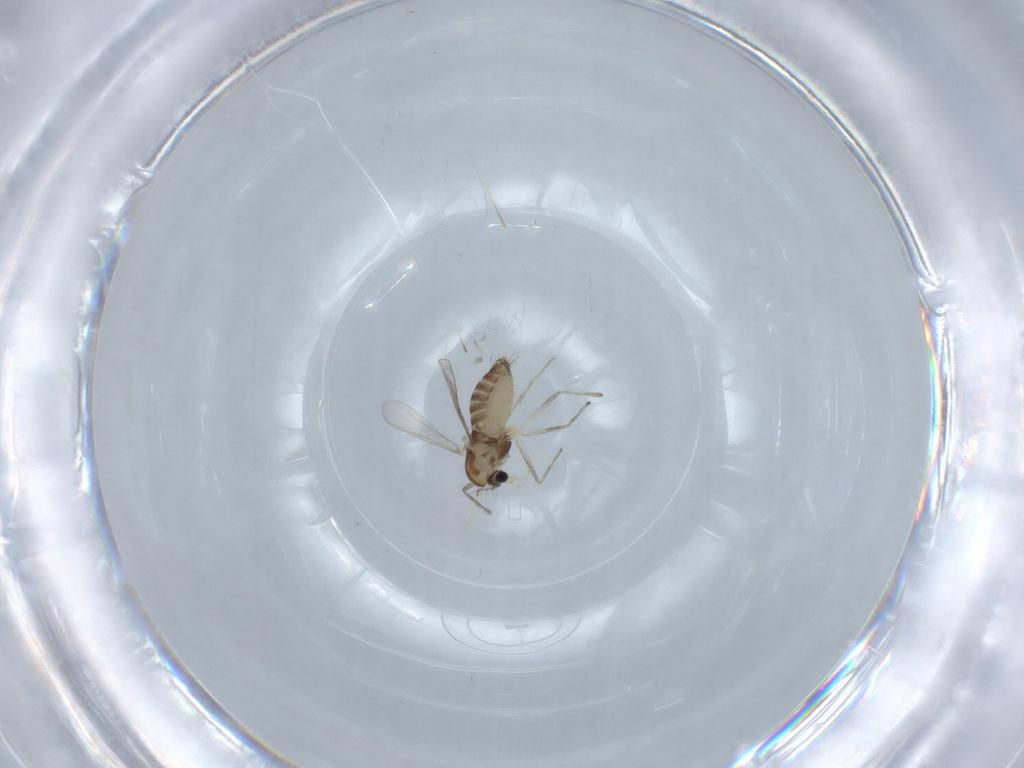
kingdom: Animalia
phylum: Arthropoda
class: Insecta
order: Diptera
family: Chironomidae
